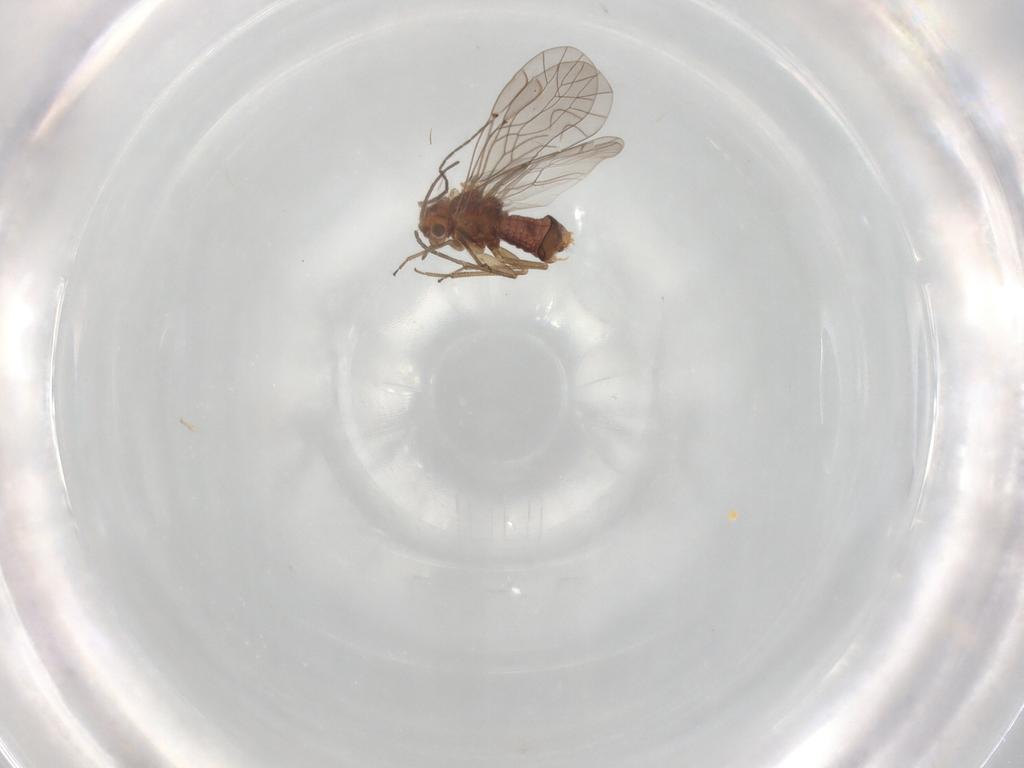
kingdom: Animalia
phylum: Arthropoda
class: Insecta
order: Psocodea
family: Lachesillidae
